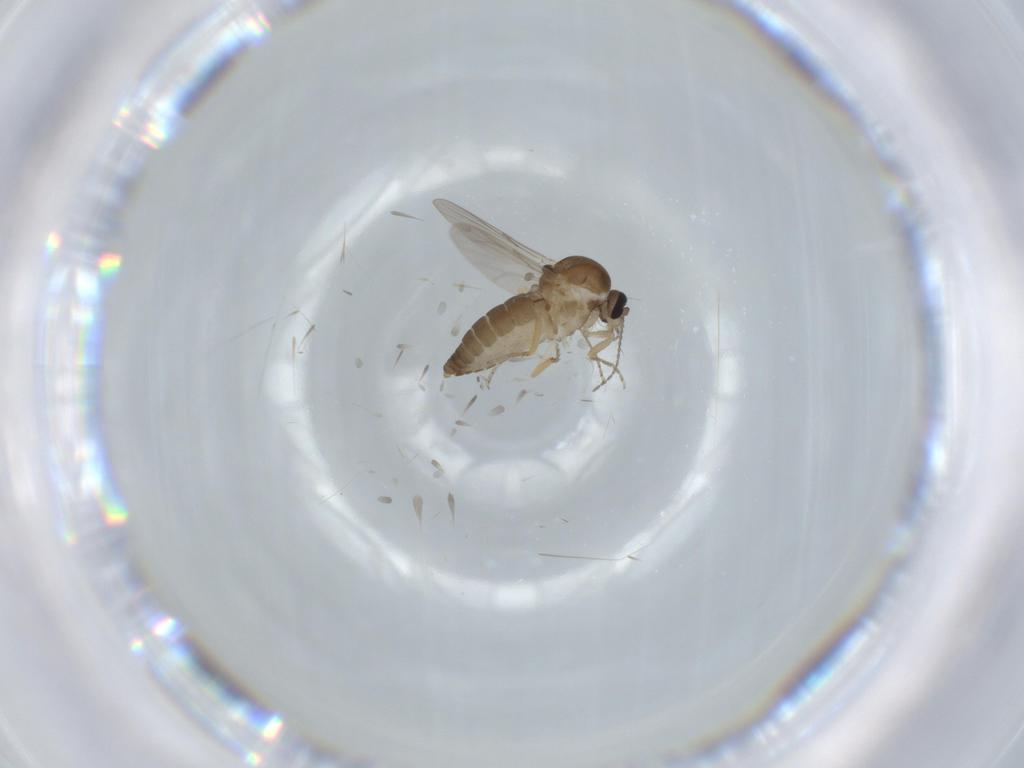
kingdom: Animalia
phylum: Arthropoda
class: Insecta
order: Diptera
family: Ceratopogonidae
